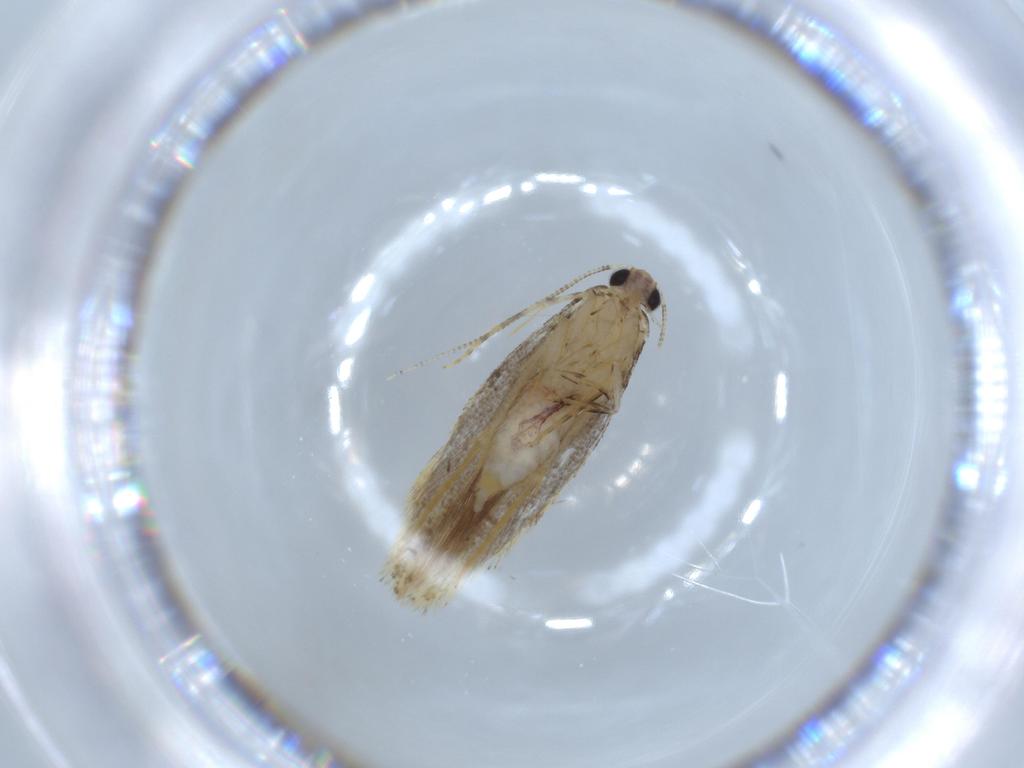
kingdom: Animalia
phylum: Arthropoda
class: Insecta
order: Lepidoptera
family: Tineidae
